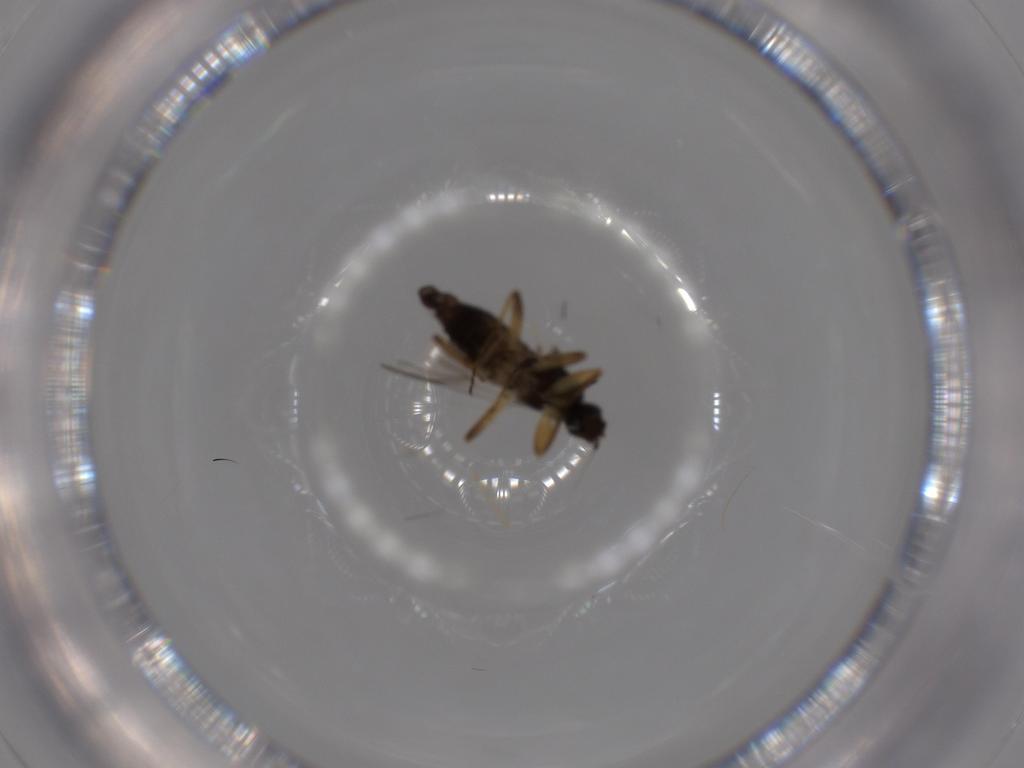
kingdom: Animalia
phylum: Arthropoda
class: Insecta
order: Diptera
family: Hybotidae
